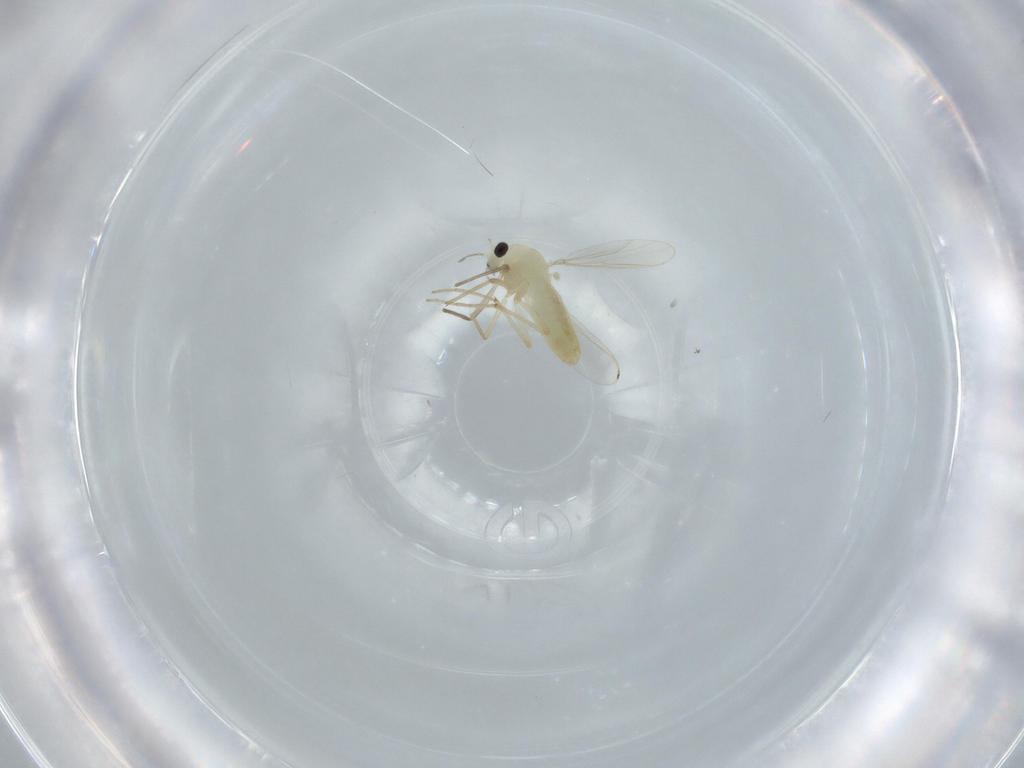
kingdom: Animalia
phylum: Arthropoda
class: Insecta
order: Diptera
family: Chironomidae
